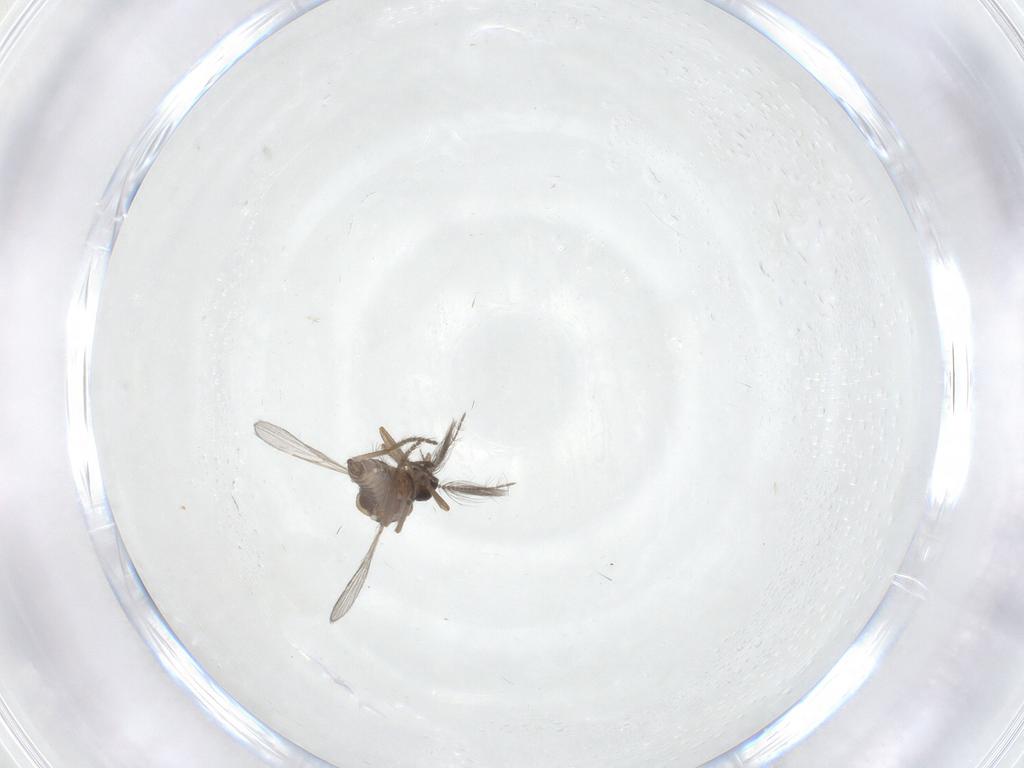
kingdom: Animalia
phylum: Arthropoda
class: Insecta
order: Diptera
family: Cecidomyiidae
